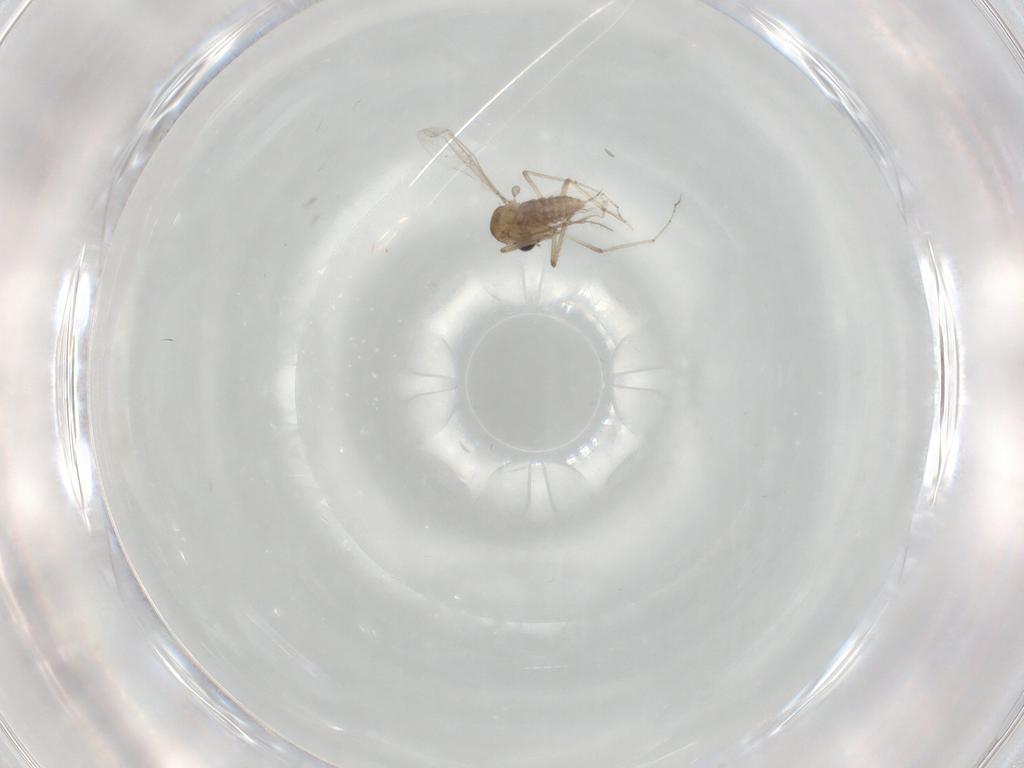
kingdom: Animalia
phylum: Arthropoda
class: Insecta
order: Diptera
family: Ceratopogonidae
